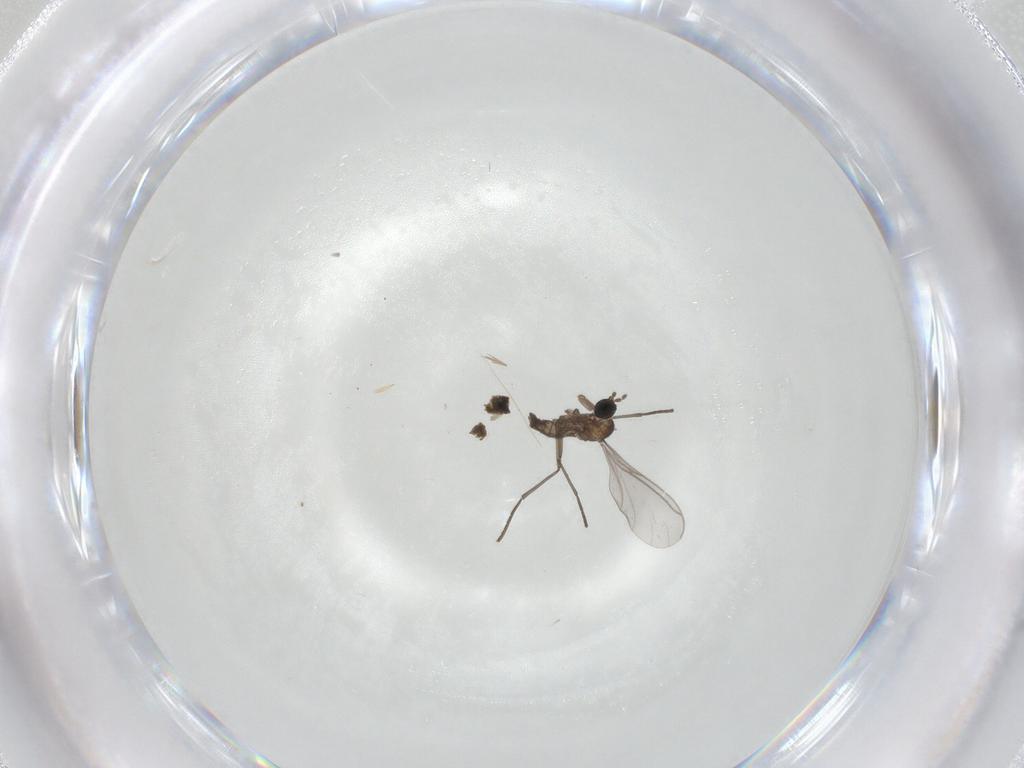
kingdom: Animalia
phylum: Arthropoda
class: Insecta
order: Diptera
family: Sciaridae
